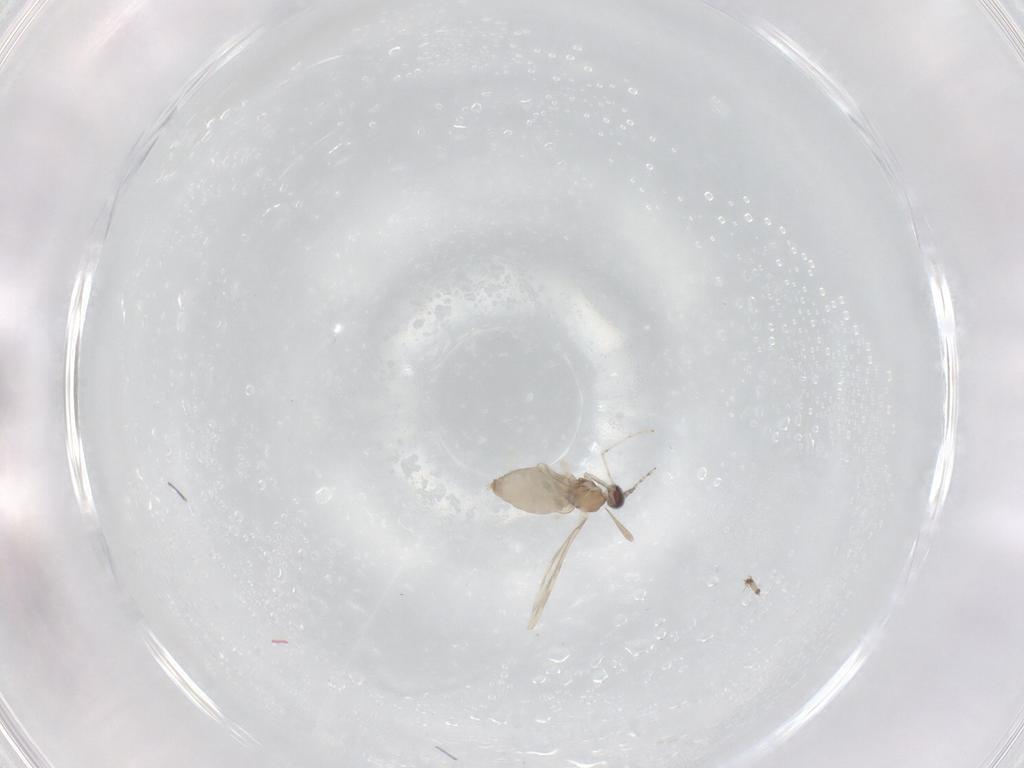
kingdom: Animalia
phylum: Arthropoda
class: Insecta
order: Diptera
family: Cecidomyiidae
